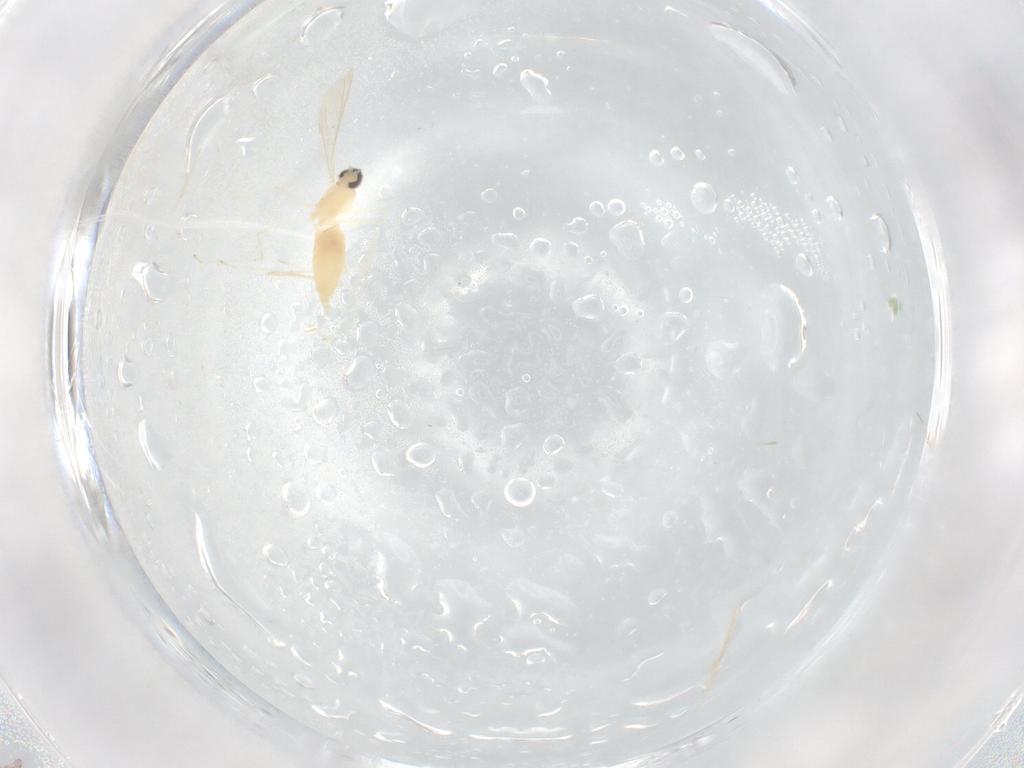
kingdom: Animalia
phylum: Arthropoda
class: Insecta
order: Diptera
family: Cecidomyiidae
